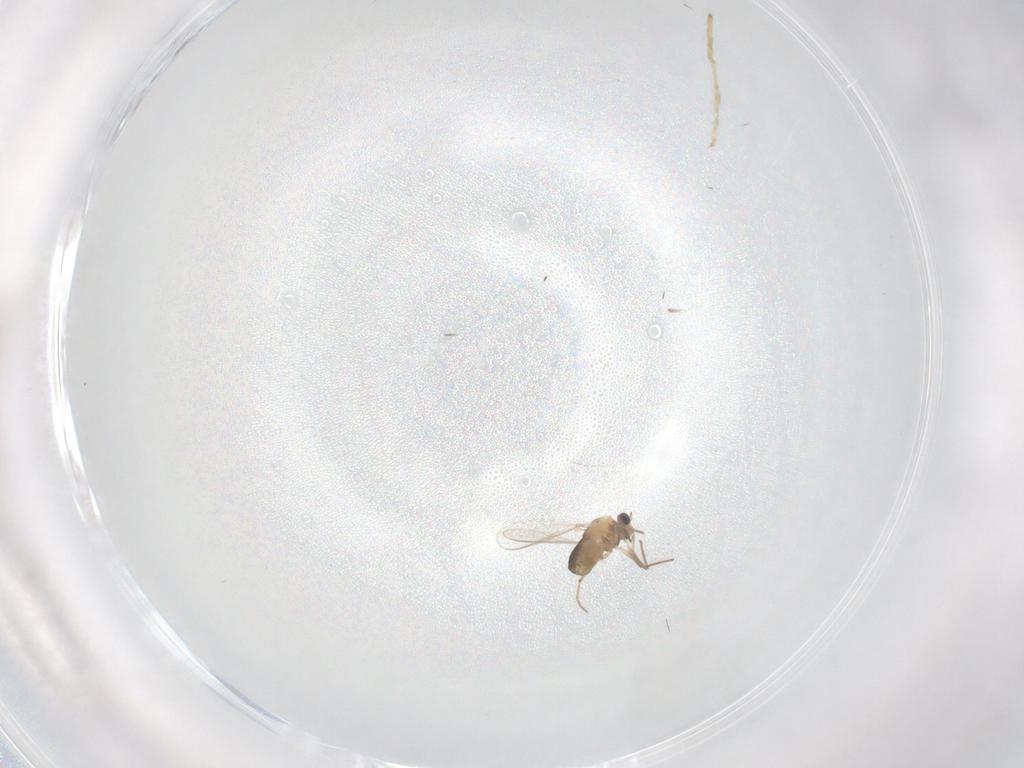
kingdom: Animalia
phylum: Arthropoda
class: Insecta
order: Diptera
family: Chironomidae
